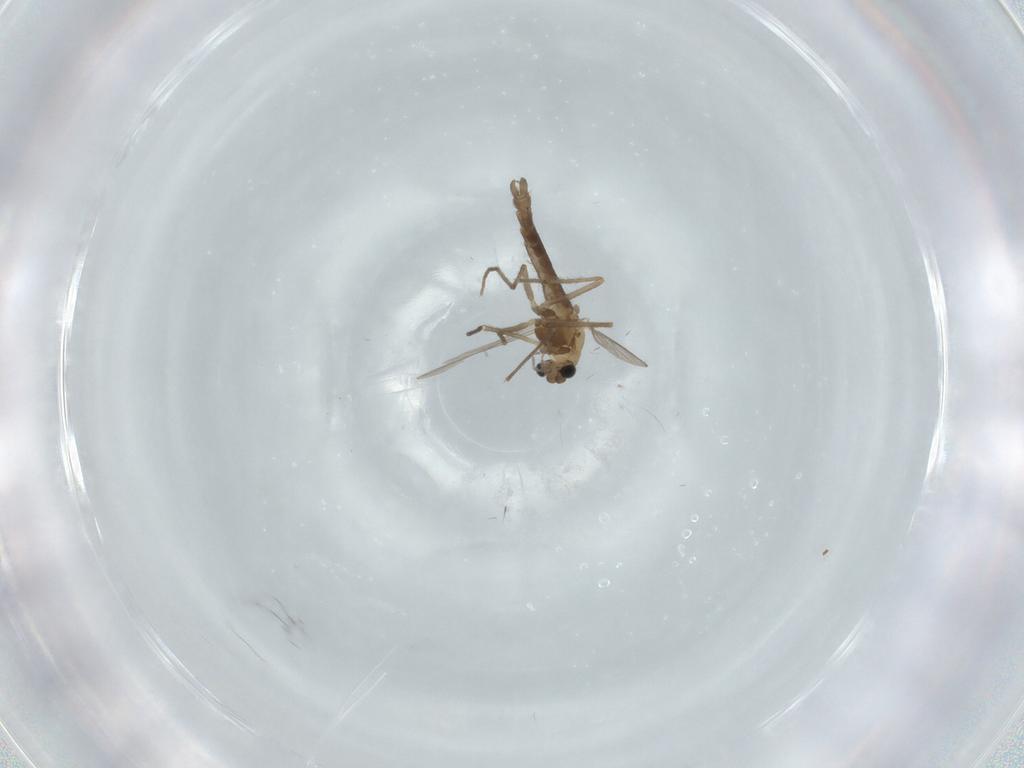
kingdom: Animalia
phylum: Arthropoda
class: Insecta
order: Diptera
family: Chironomidae
